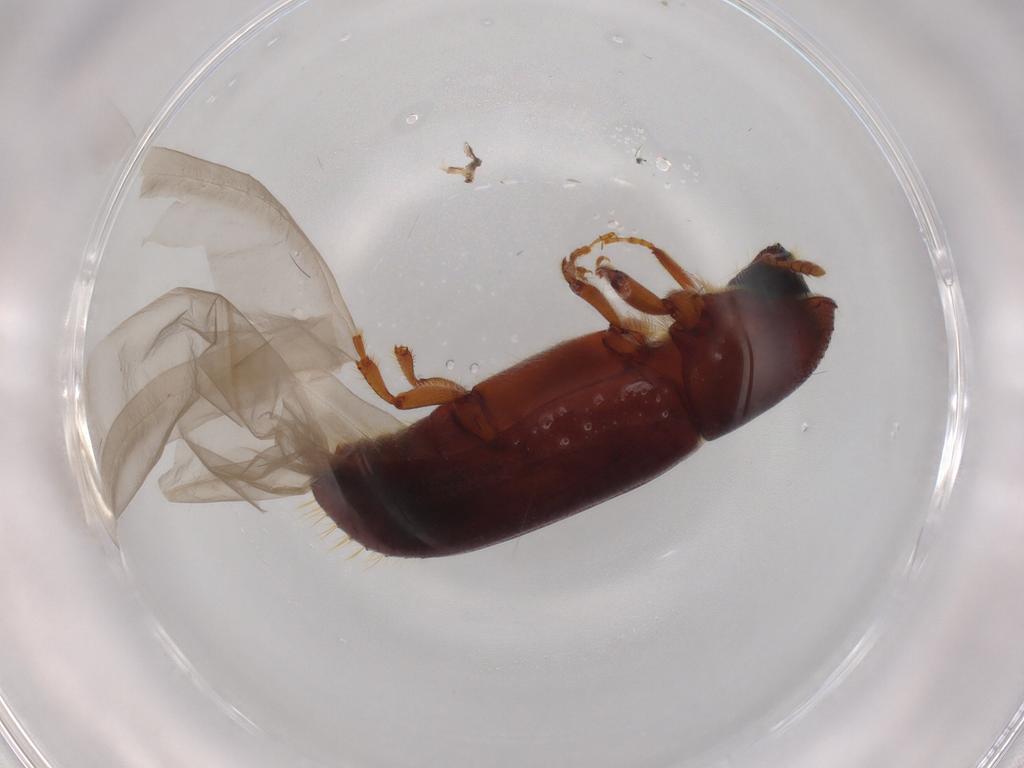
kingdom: Animalia
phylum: Arthropoda
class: Insecta
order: Coleoptera
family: Curculionidae
